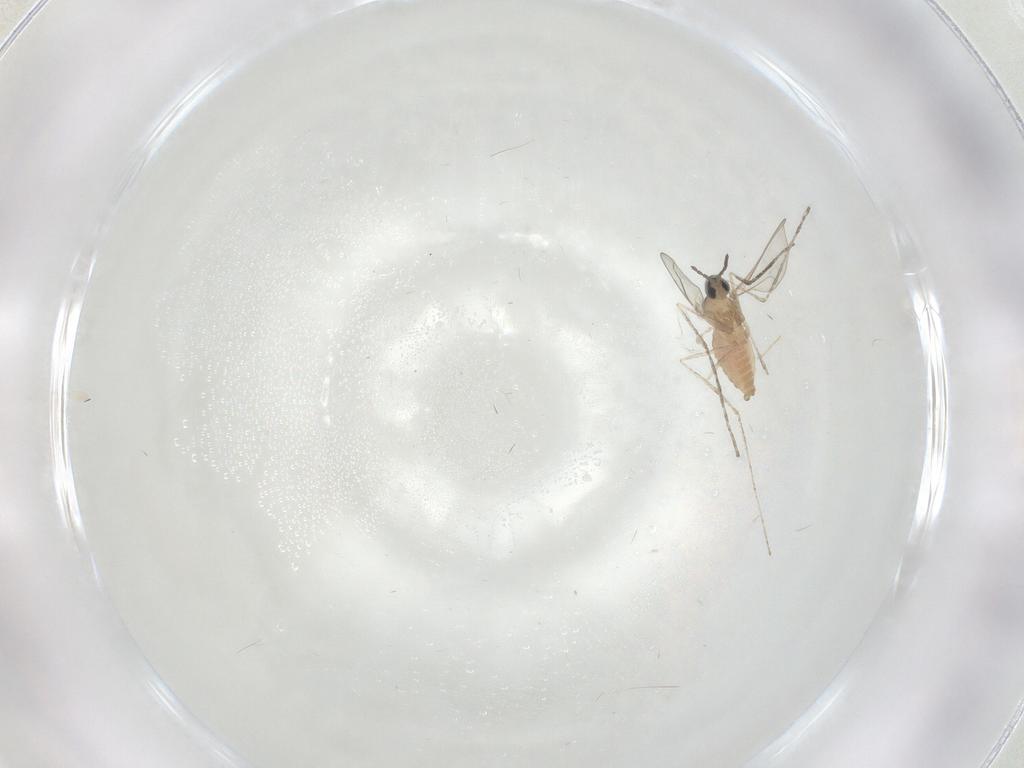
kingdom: Animalia
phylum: Arthropoda
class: Insecta
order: Diptera
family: Cecidomyiidae
